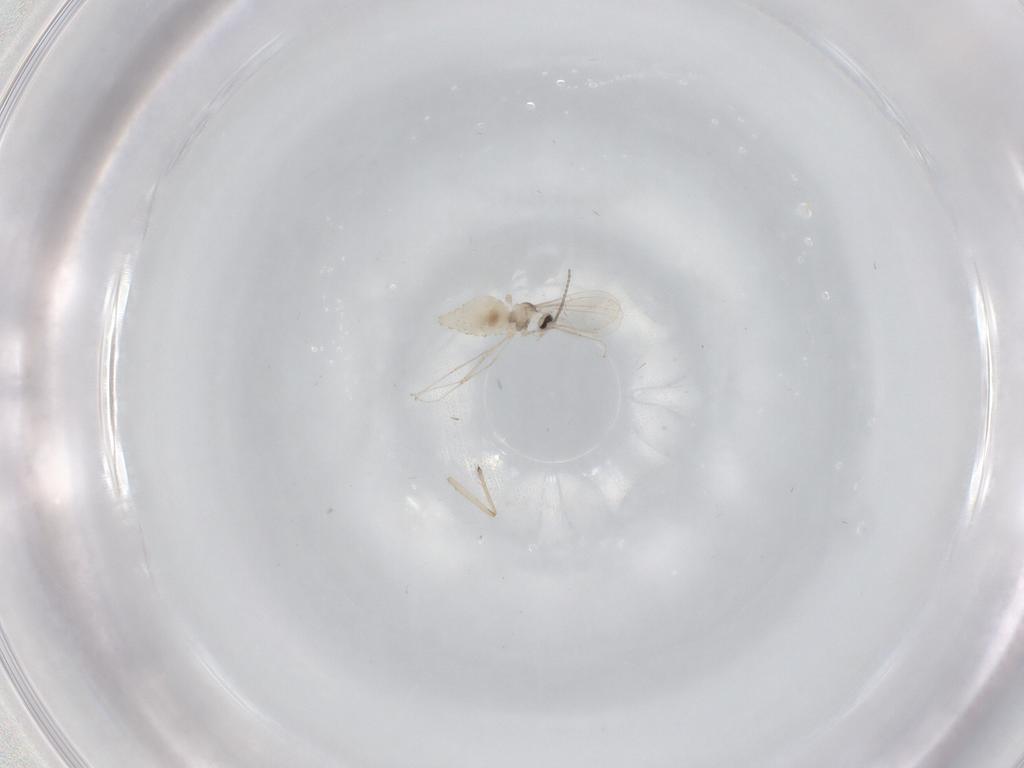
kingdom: Animalia
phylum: Arthropoda
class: Insecta
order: Diptera
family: Cecidomyiidae
